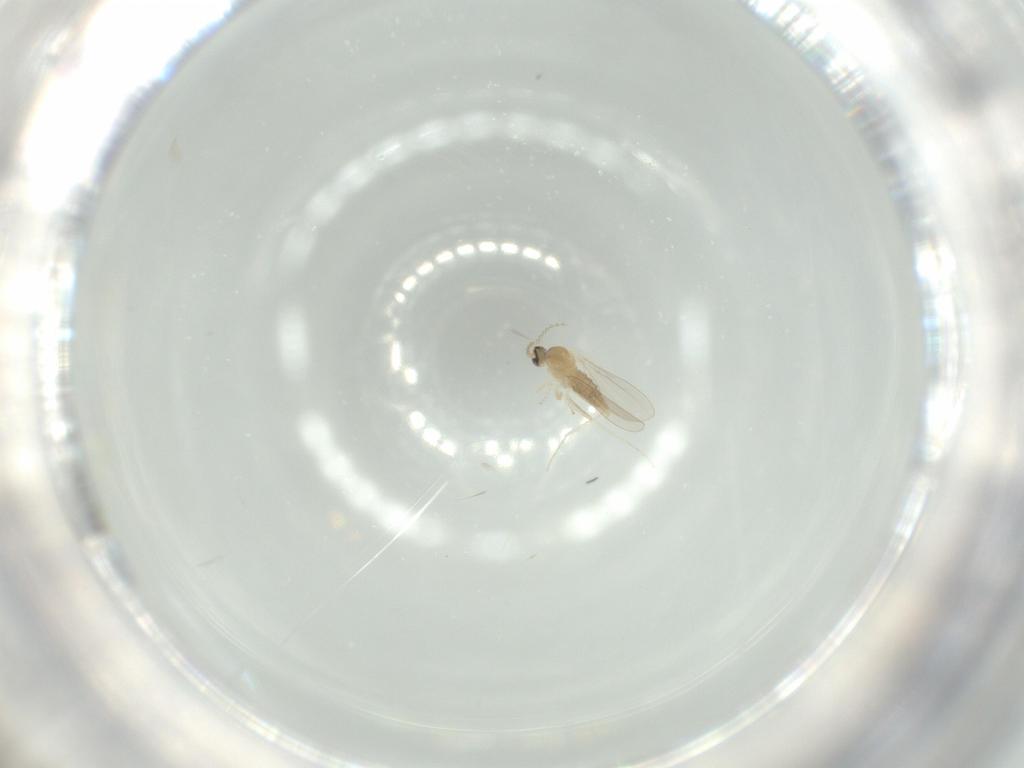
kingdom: Animalia
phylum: Arthropoda
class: Insecta
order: Diptera
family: Cecidomyiidae
